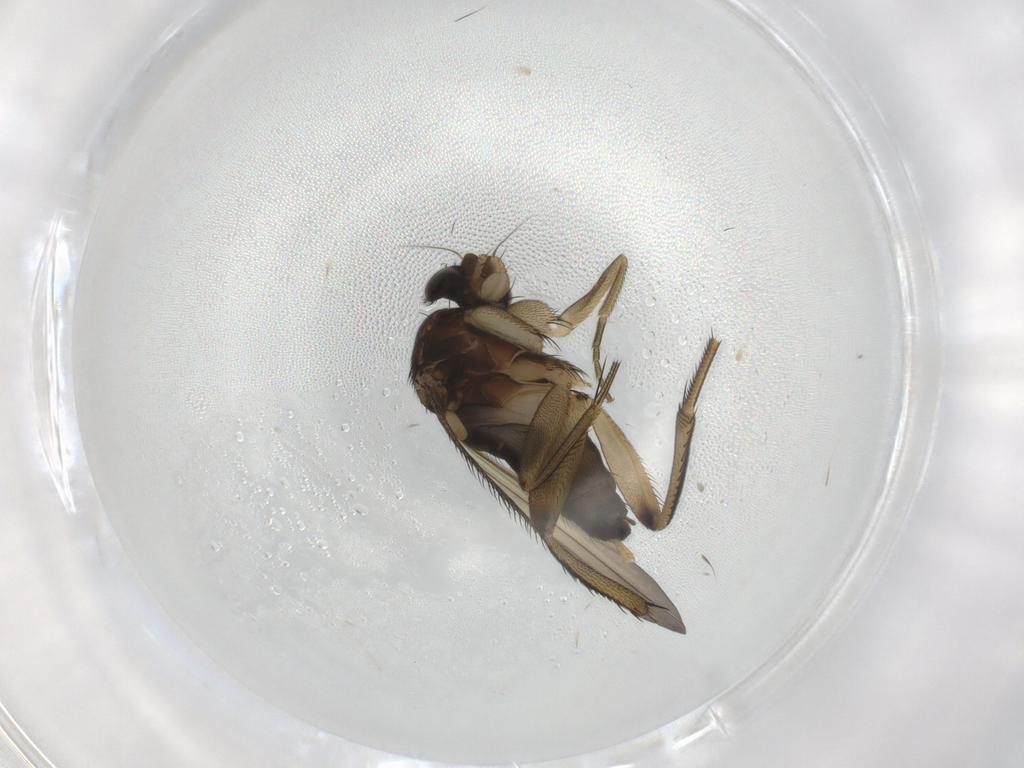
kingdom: Animalia
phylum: Arthropoda
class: Insecta
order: Diptera
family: Phoridae
